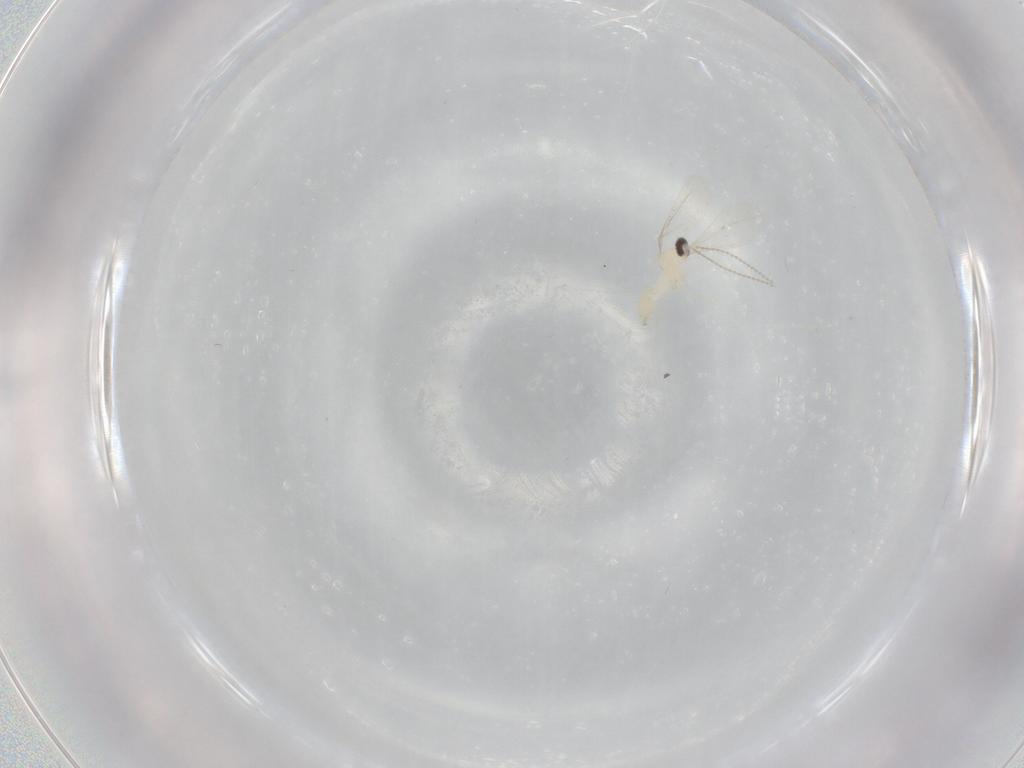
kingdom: Animalia
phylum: Arthropoda
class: Insecta
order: Diptera
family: Cecidomyiidae
